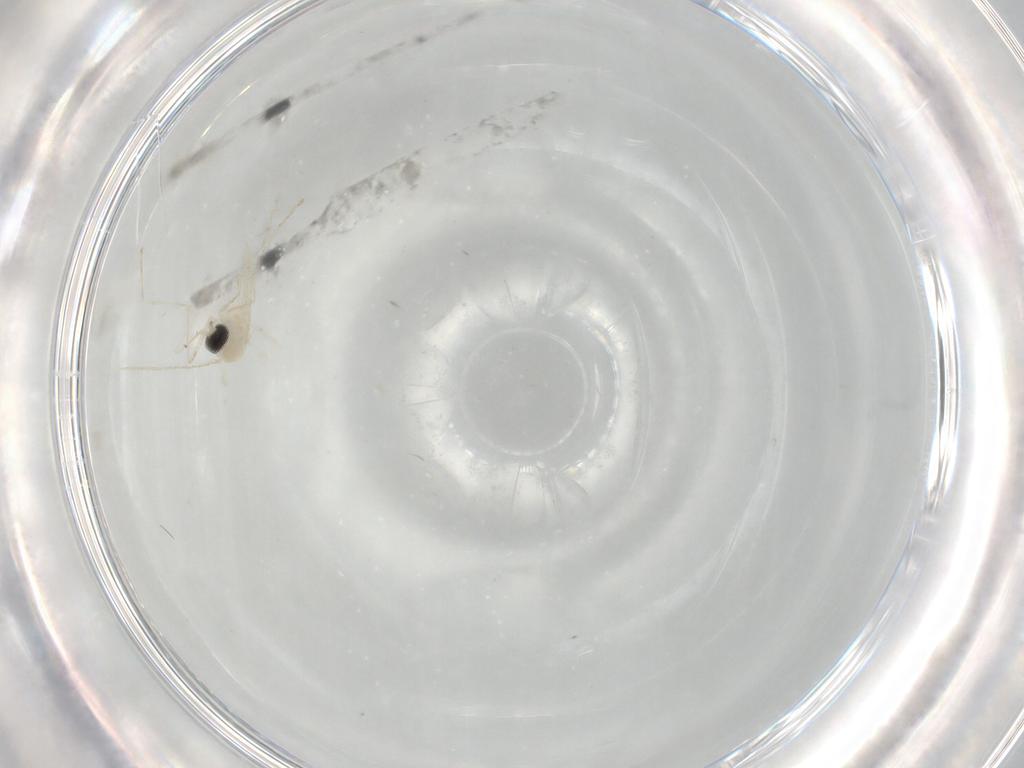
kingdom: Animalia
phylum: Arthropoda
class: Insecta
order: Diptera
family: Cecidomyiidae
